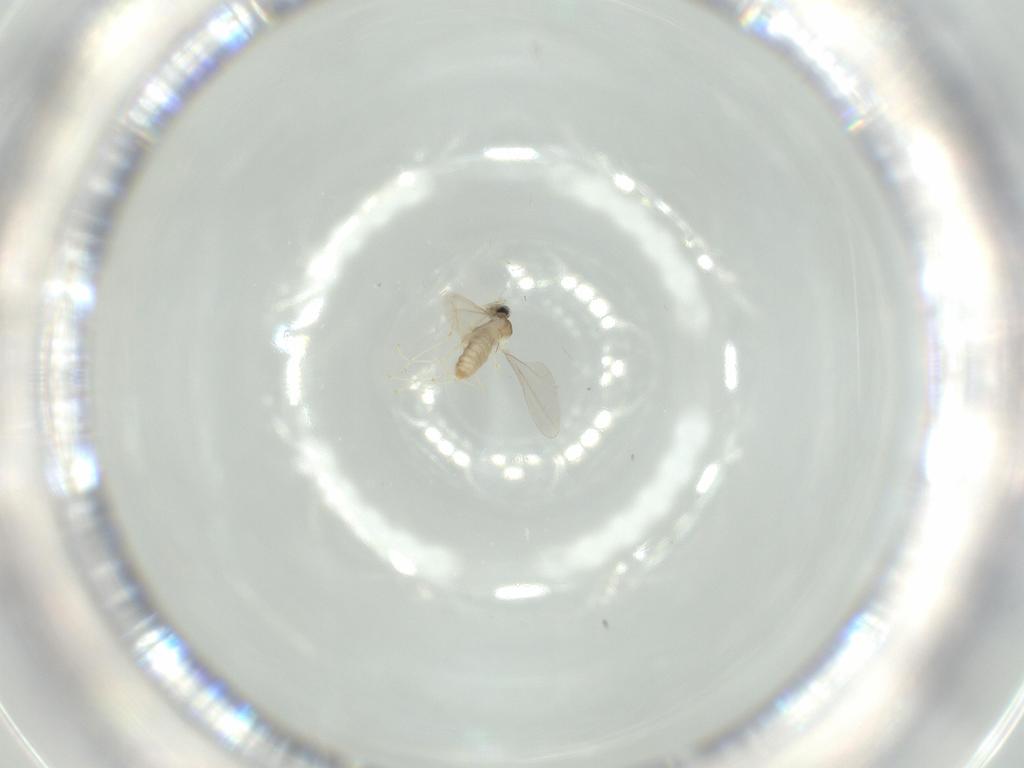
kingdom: Animalia
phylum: Arthropoda
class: Insecta
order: Diptera
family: Cecidomyiidae
